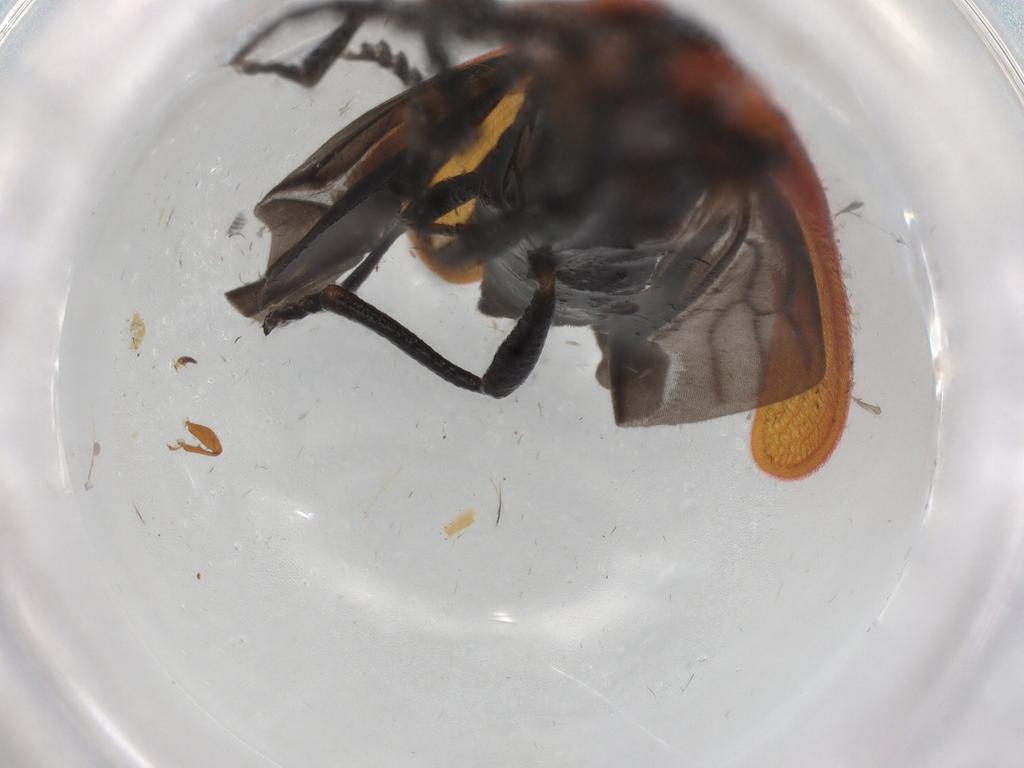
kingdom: Animalia
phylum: Arthropoda
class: Insecta
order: Coleoptera
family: Lycidae
